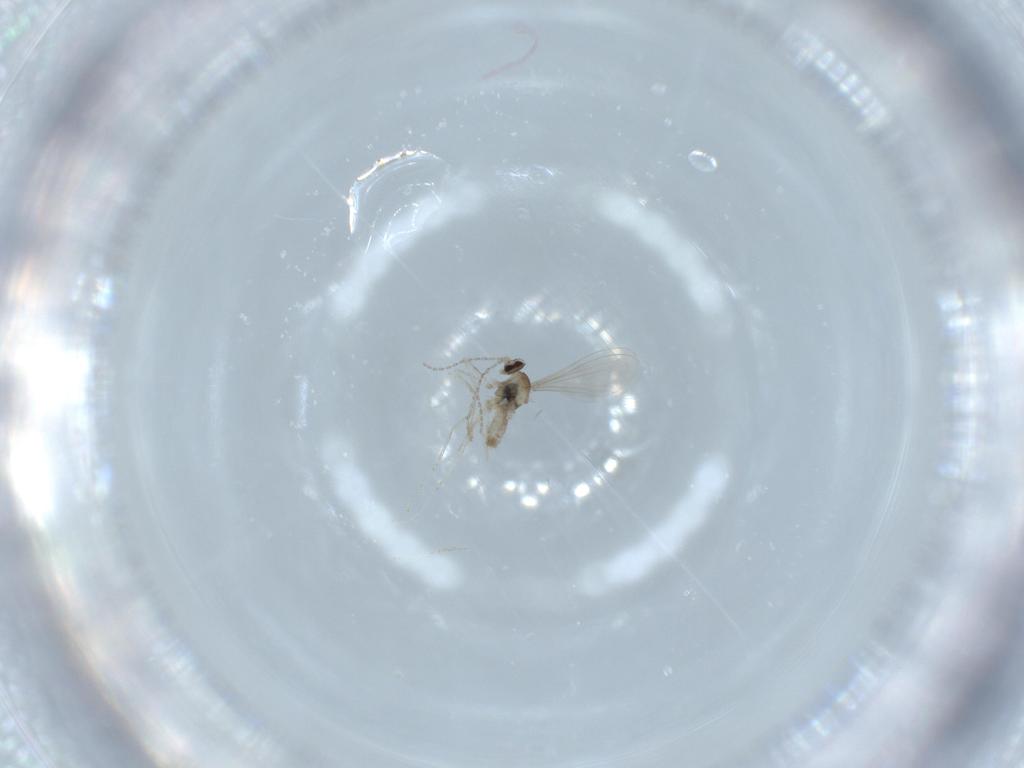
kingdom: Animalia
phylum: Arthropoda
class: Insecta
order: Diptera
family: Cecidomyiidae
